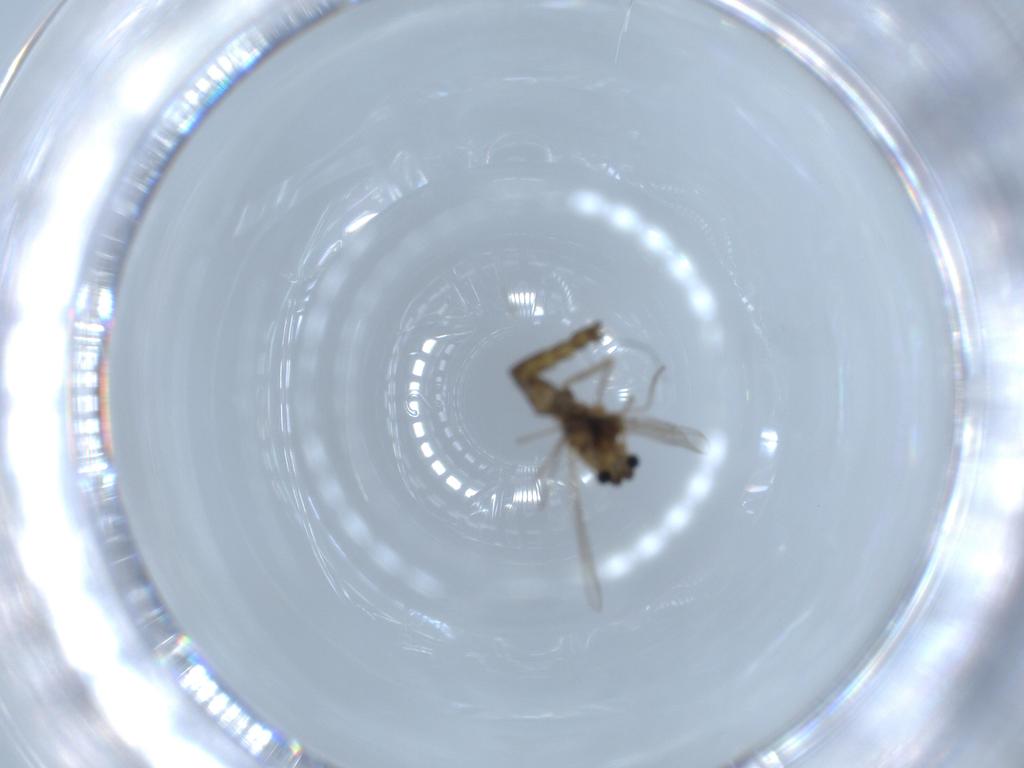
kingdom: Animalia
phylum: Arthropoda
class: Insecta
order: Diptera
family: Chironomidae
